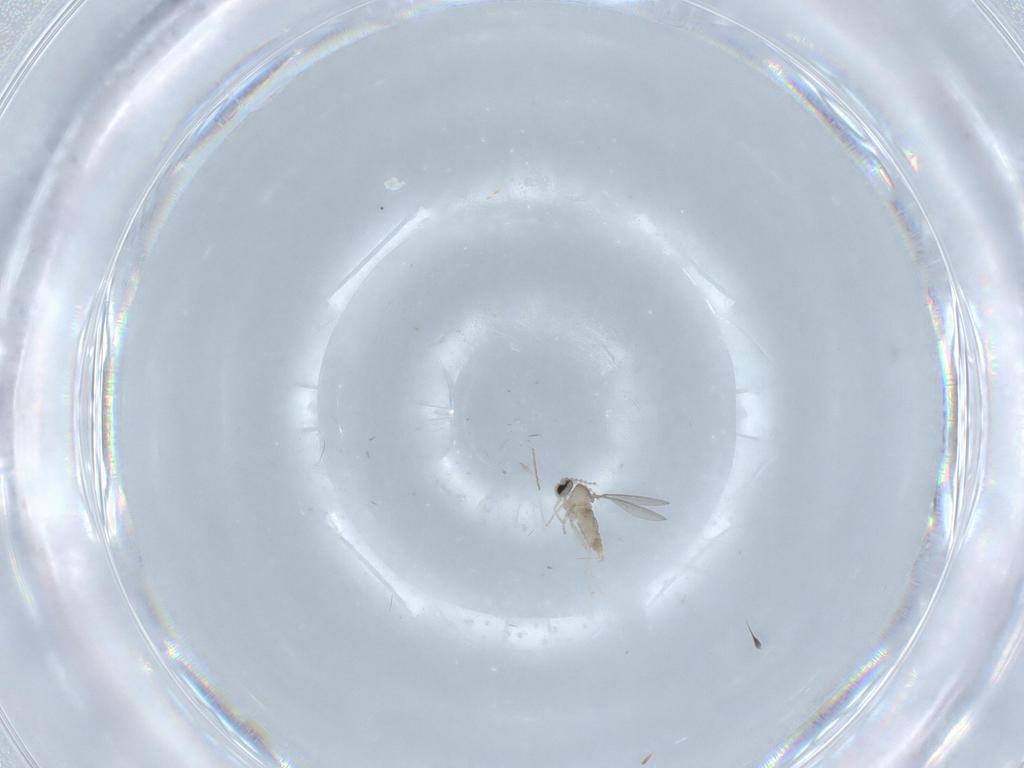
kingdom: Animalia
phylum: Arthropoda
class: Insecta
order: Diptera
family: Cecidomyiidae
